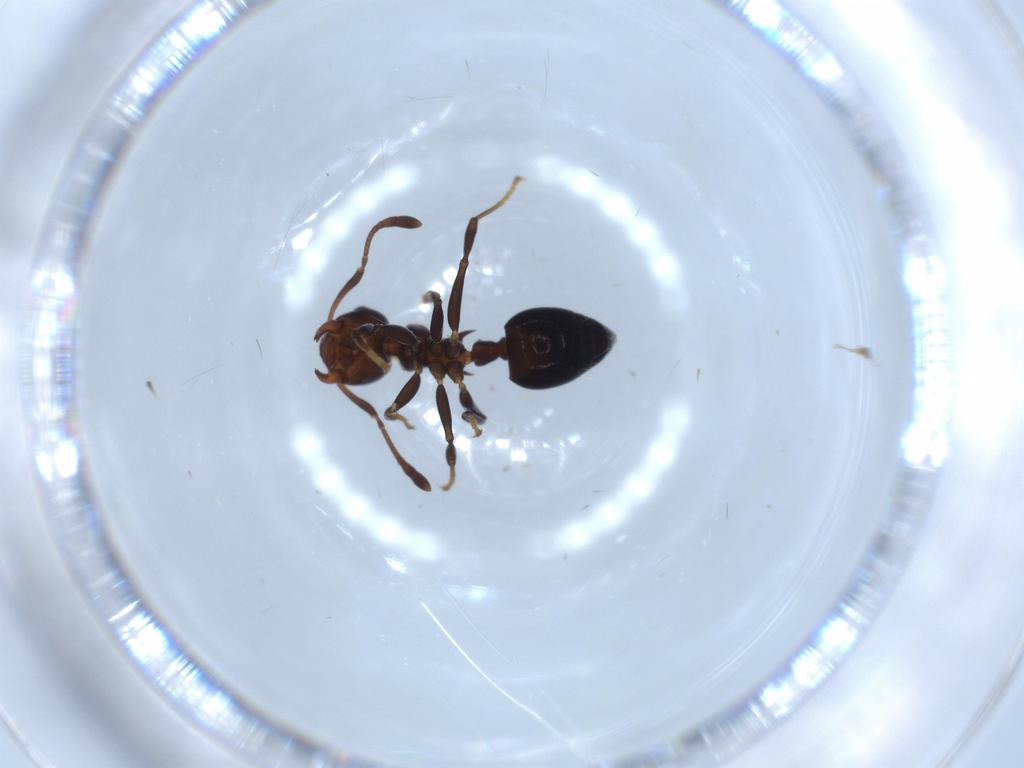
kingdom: Animalia
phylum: Arthropoda
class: Insecta
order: Hymenoptera
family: Formicidae
